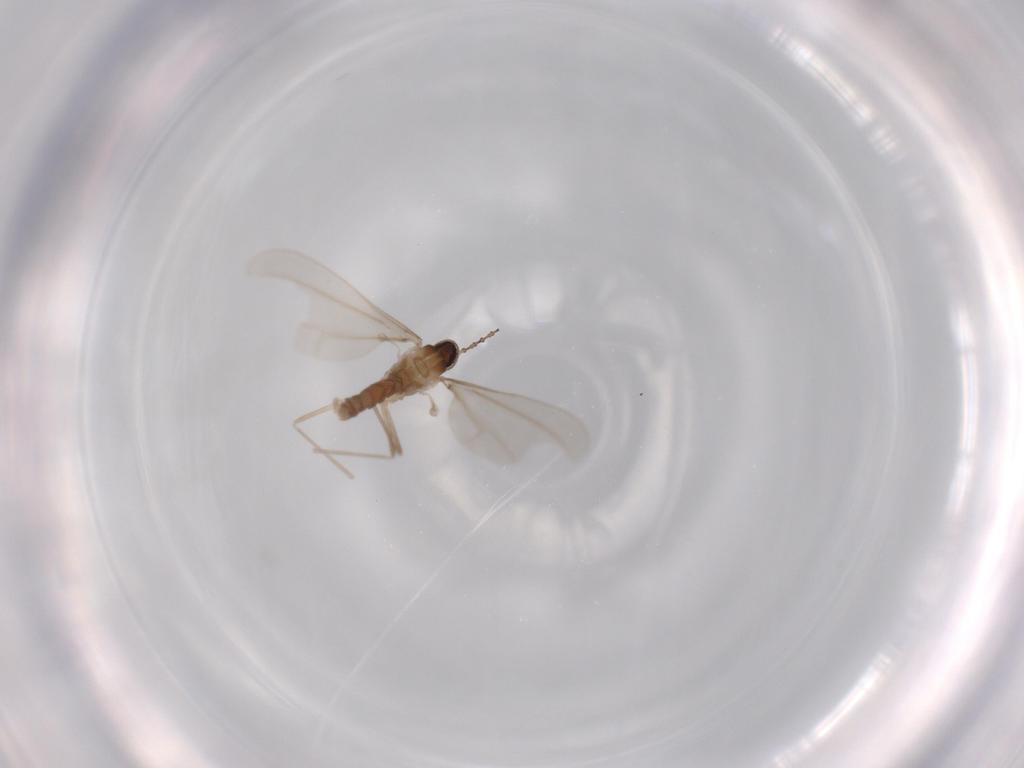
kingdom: Animalia
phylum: Arthropoda
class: Insecta
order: Diptera
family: Cecidomyiidae
